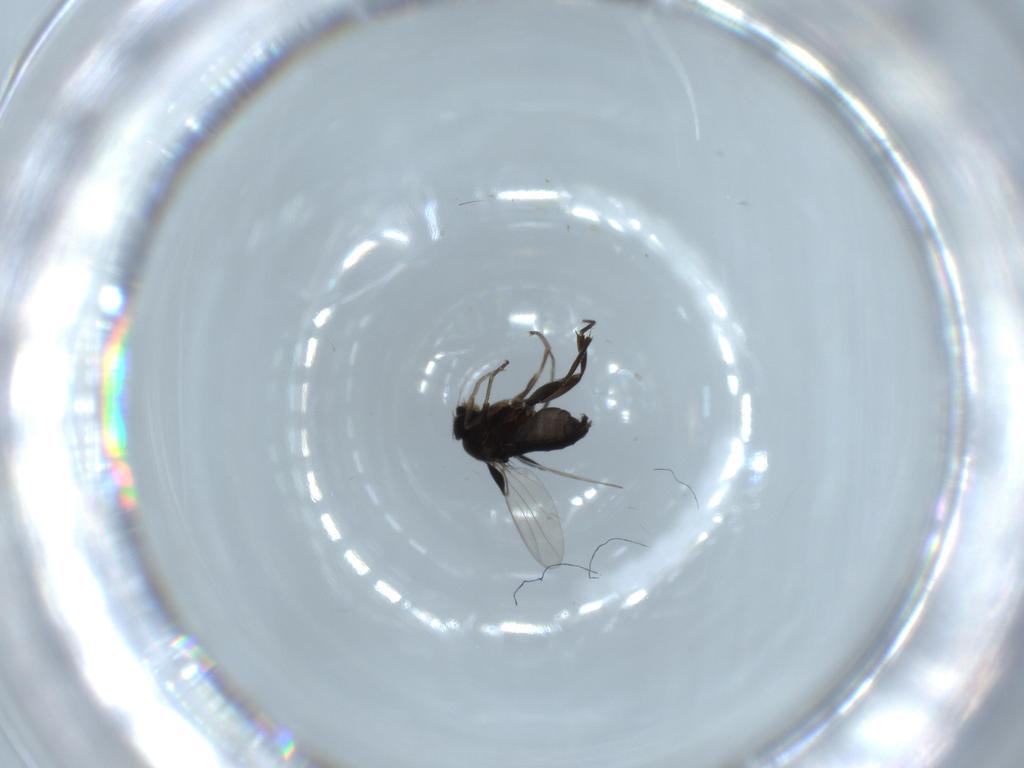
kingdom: Animalia
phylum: Arthropoda
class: Insecta
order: Diptera
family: Phoridae
